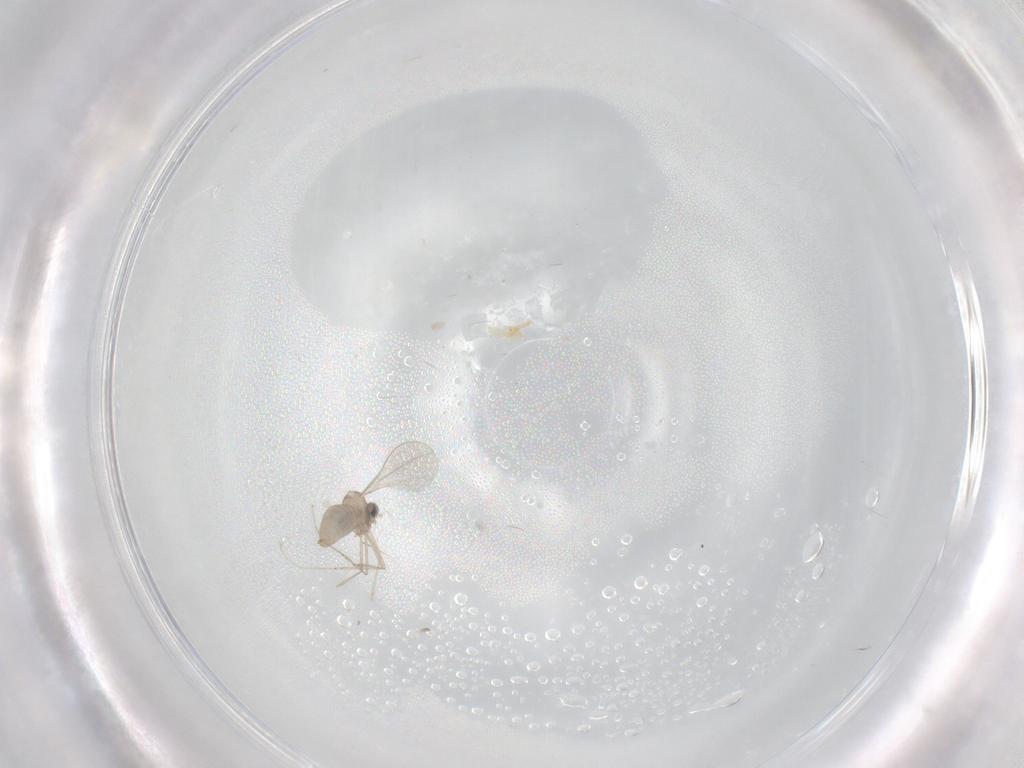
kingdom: Animalia
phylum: Arthropoda
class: Insecta
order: Diptera
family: Cecidomyiidae
